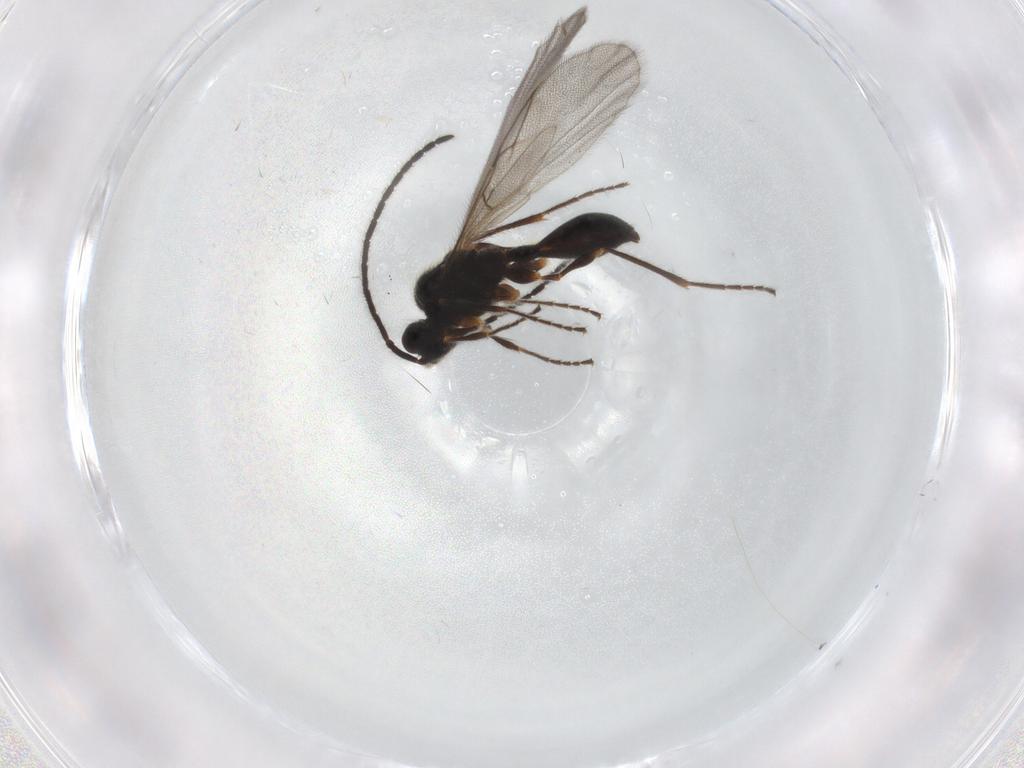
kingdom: Animalia
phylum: Arthropoda
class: Insecta
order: Hymenoptera
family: Diapriidae
